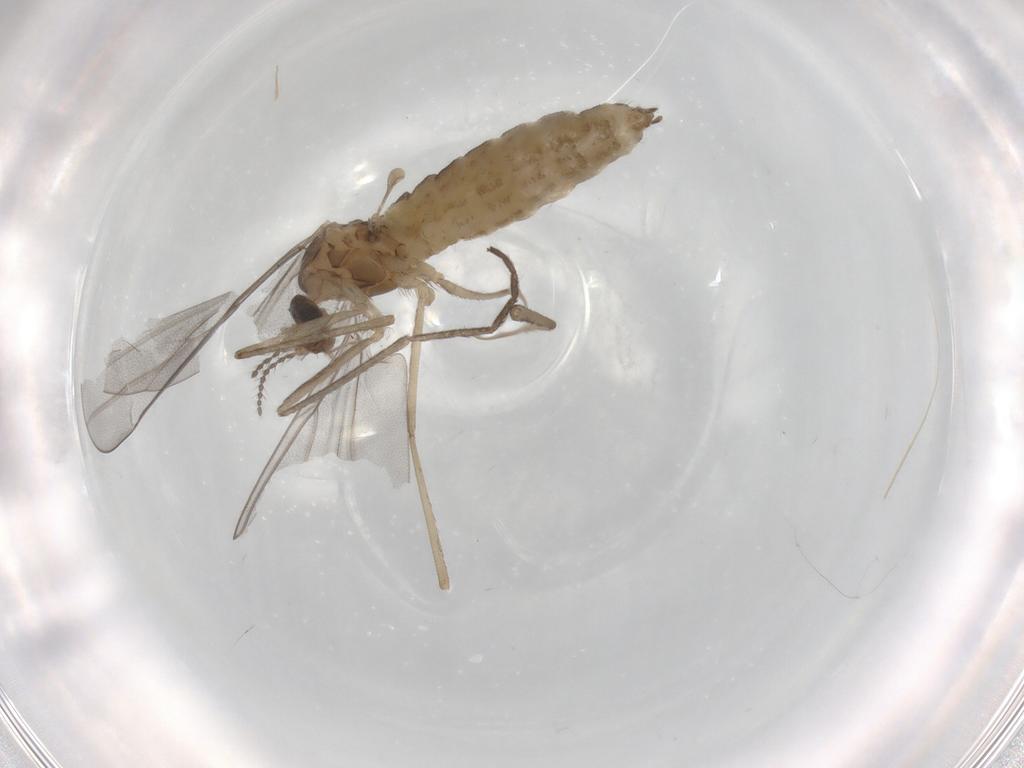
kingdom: Animalia
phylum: Arthropoda
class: Insecta
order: Diptera
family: Cecidomyiidae
